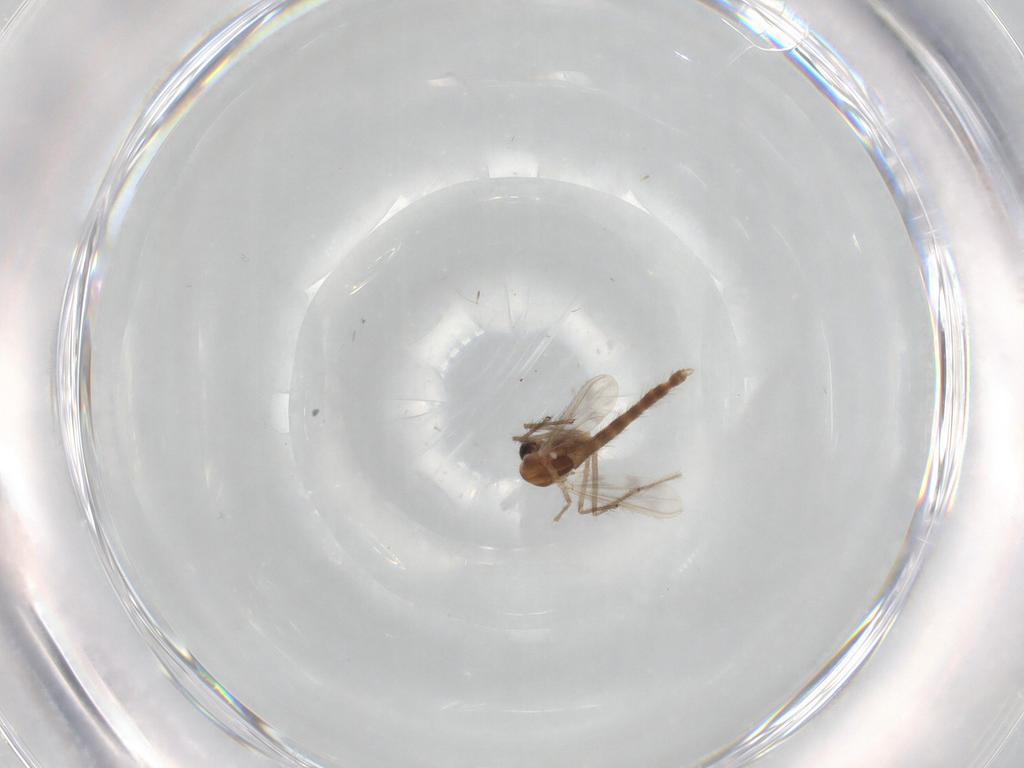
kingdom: Animalia
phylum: Arthropoda
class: Insecta
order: Diptera
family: Chironomidae
